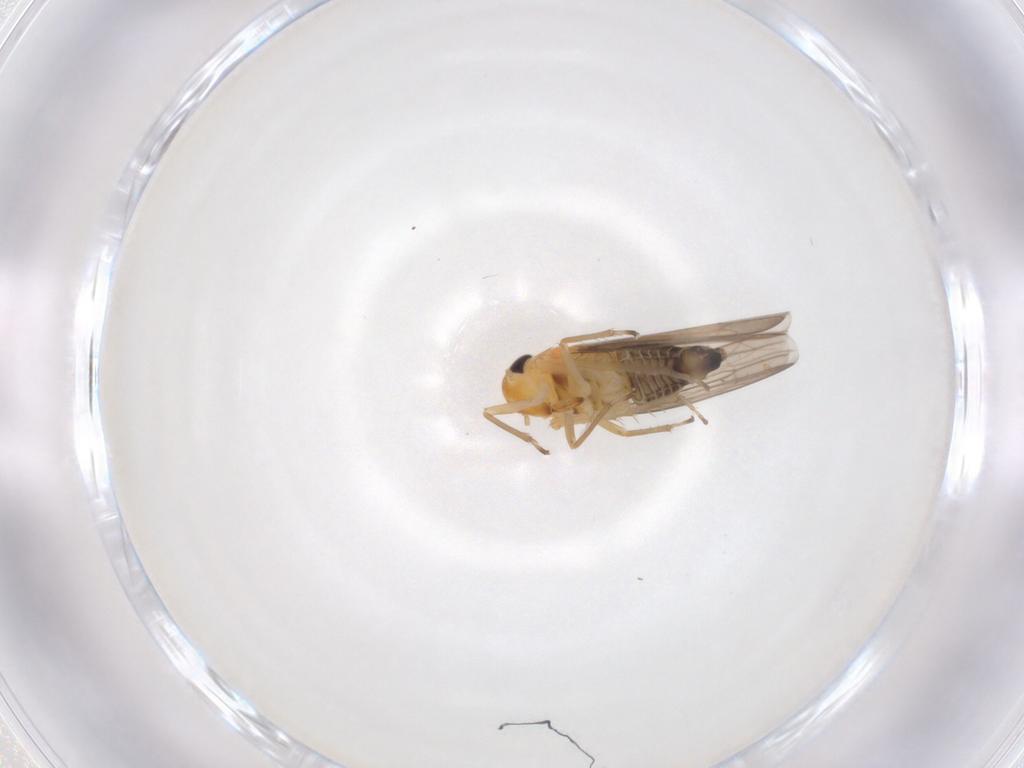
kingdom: Animalia
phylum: Arthropoda
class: Insecta
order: Hemiptera
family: Cicadellidae
